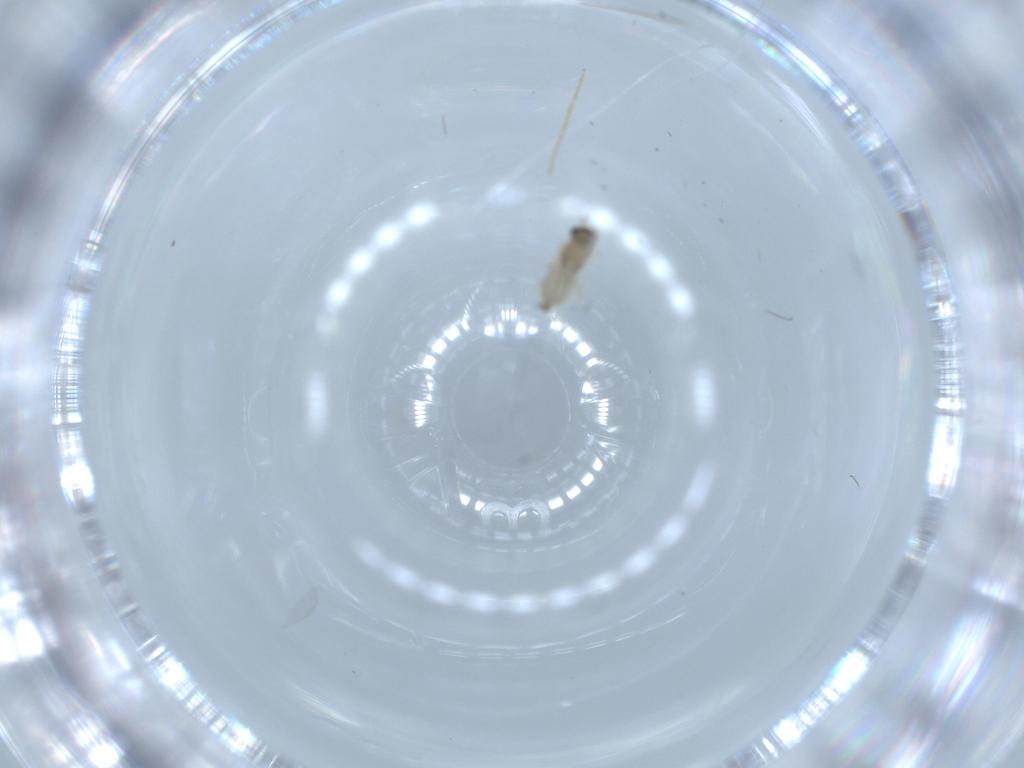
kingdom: Animalia
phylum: Arthropoda
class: Insecta
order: Diptera
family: Chironomidae
